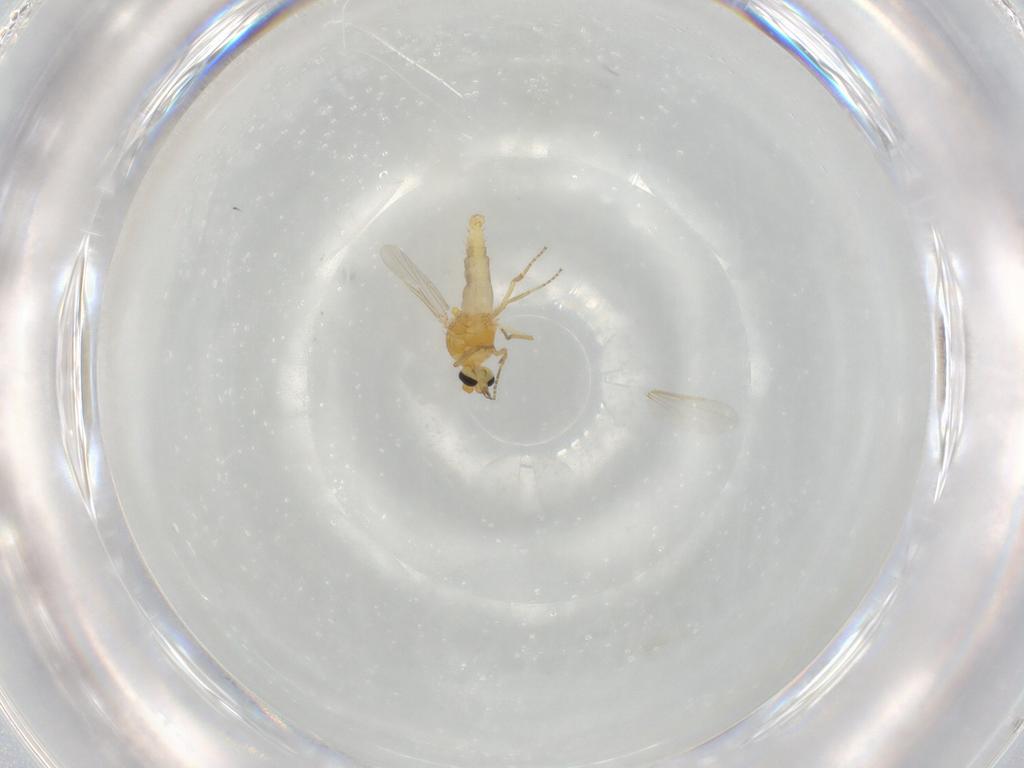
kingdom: Animalia
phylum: Arthropoda
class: Insecta
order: Diptera
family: Ceratopogonidae
